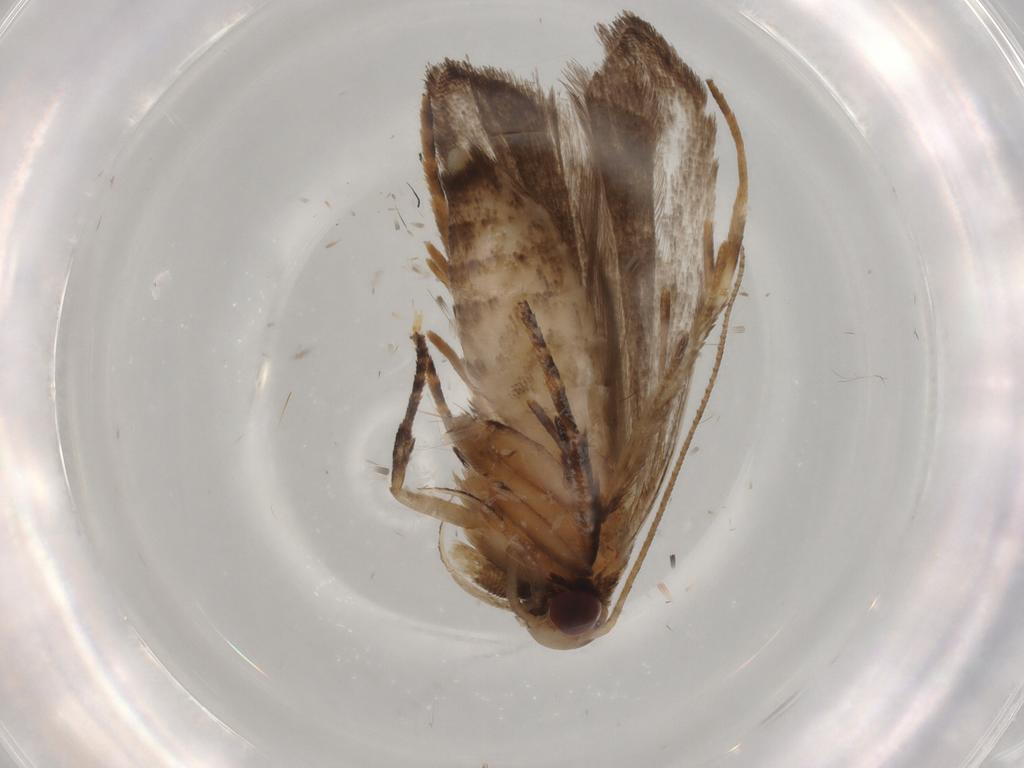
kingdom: Animalia
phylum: Arthropoda
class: Insecta
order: Lepidoptera
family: Gelechiidae
